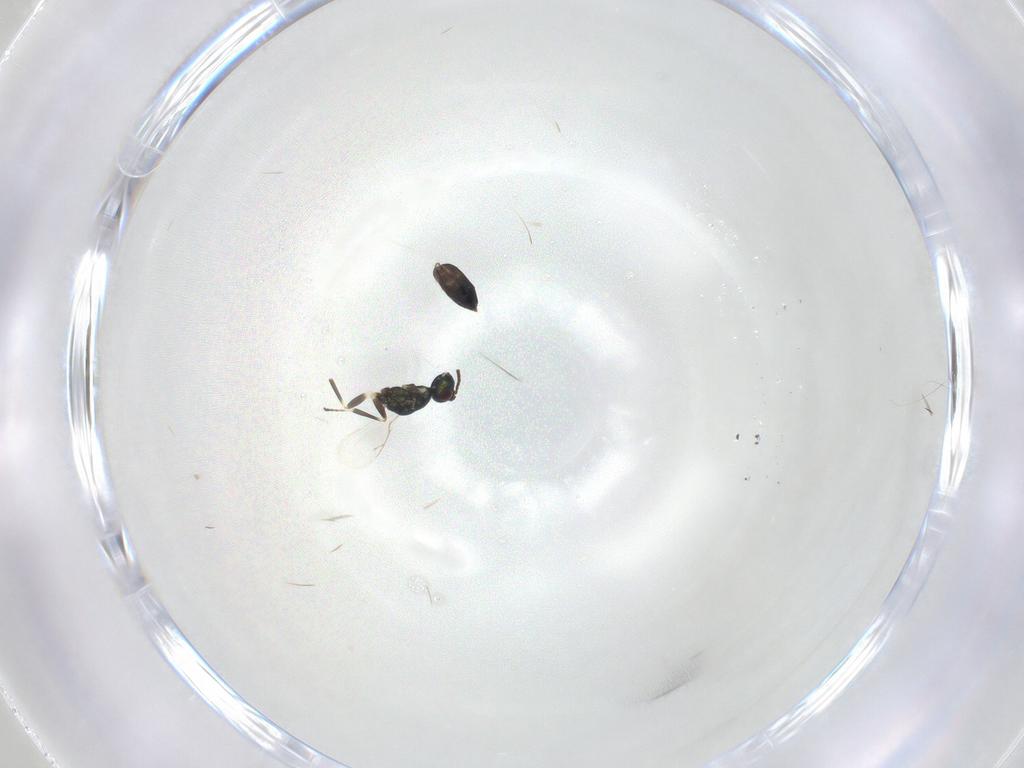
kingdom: Animalia
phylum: Arthropoda
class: Insecta
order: Hymenoptera
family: Eupelmidae
